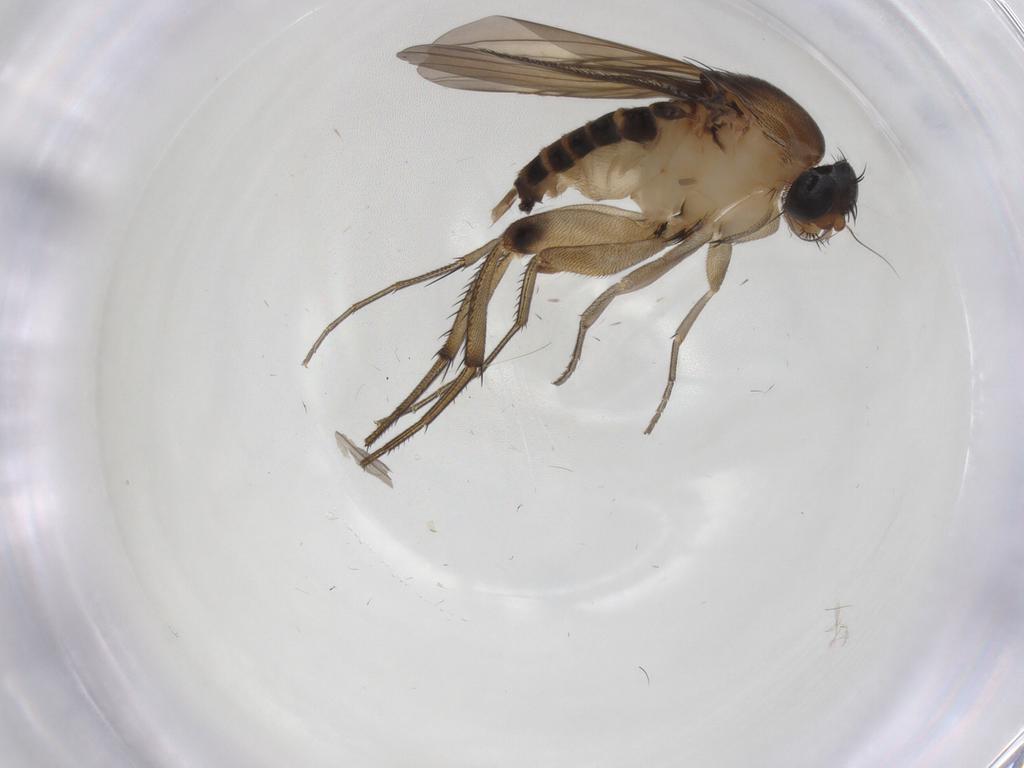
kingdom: Animalia
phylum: Arthropoda
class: Insecta
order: Diptera
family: Phoridae
